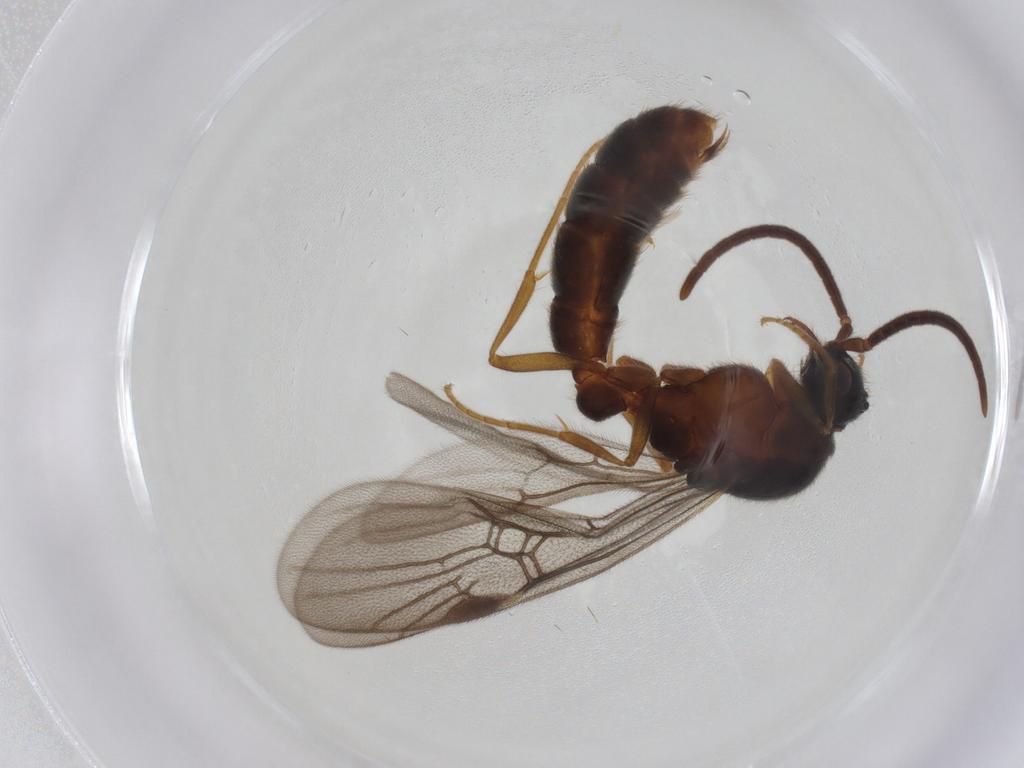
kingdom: Animalia
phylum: Arthropoda
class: Insecta
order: Hymenoptera
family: Formicidae
